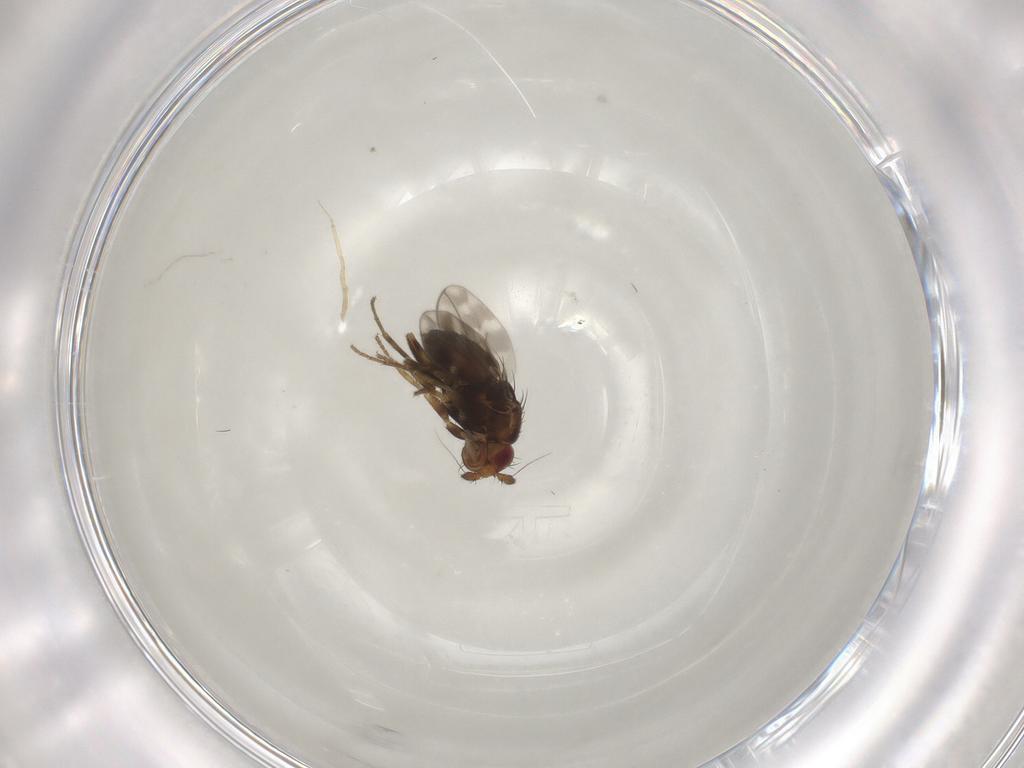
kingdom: Animalia
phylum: Arthropoda
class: Insecta
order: Diptera
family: Sphaeroceridae
